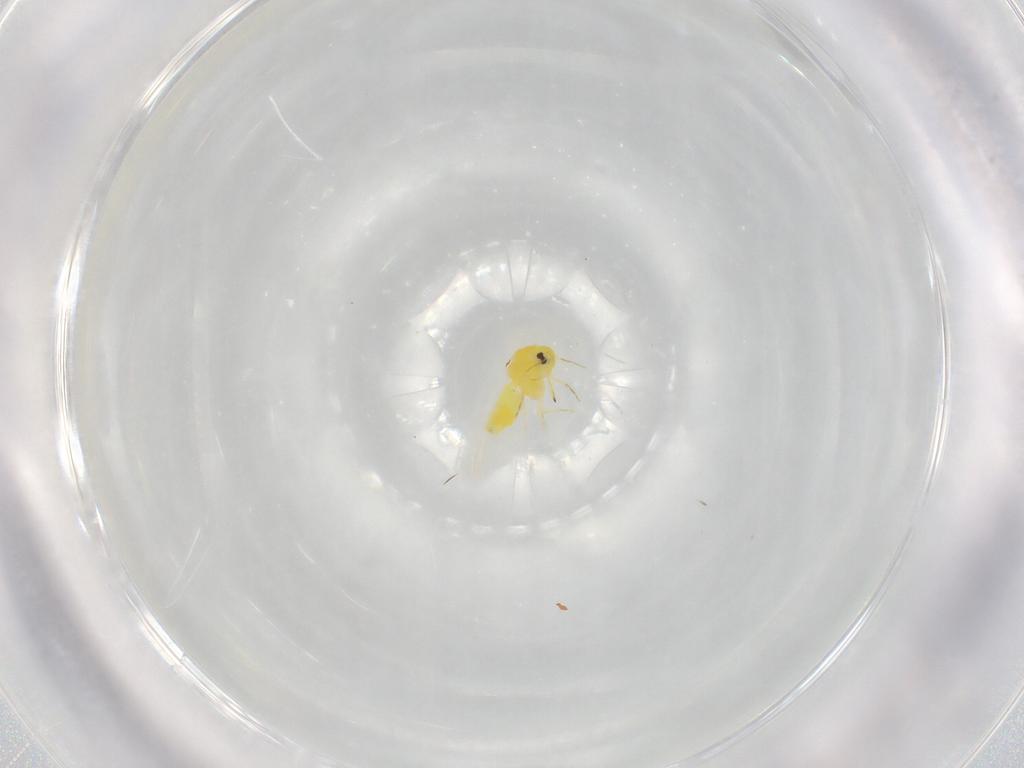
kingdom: Animalia
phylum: Arthropoda
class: Insecta
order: Hemiptera
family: Aleyrodidae
